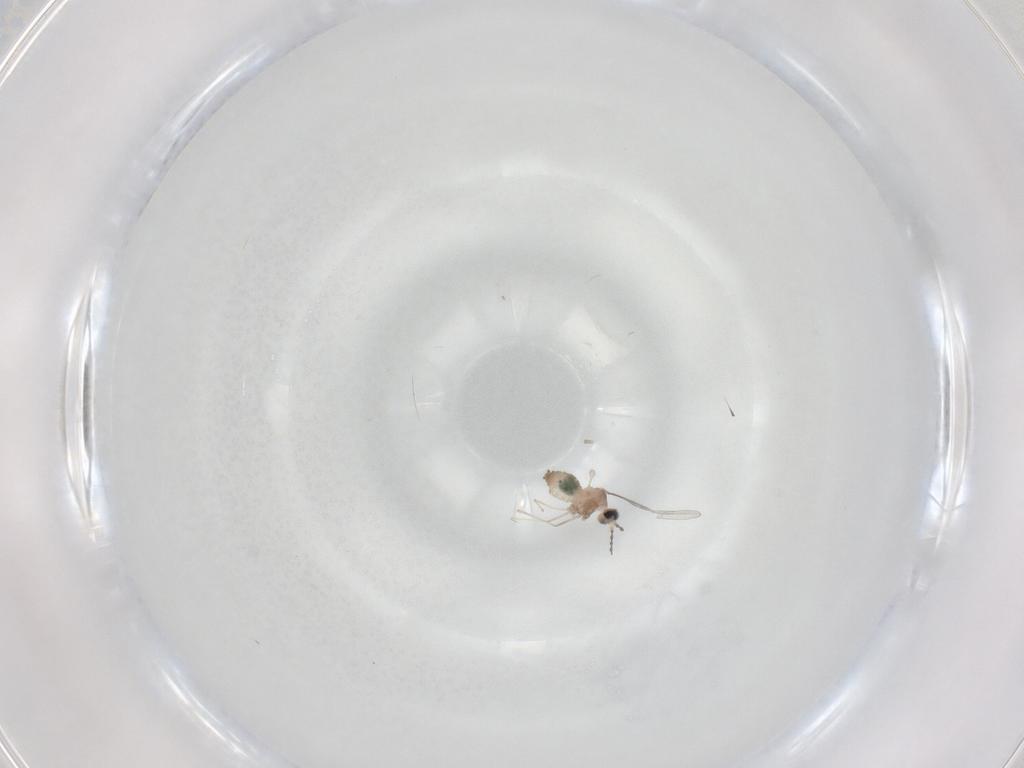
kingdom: Animalia
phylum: Arthropoda
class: Insecta
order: Diptera
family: Cecidomyiidae
